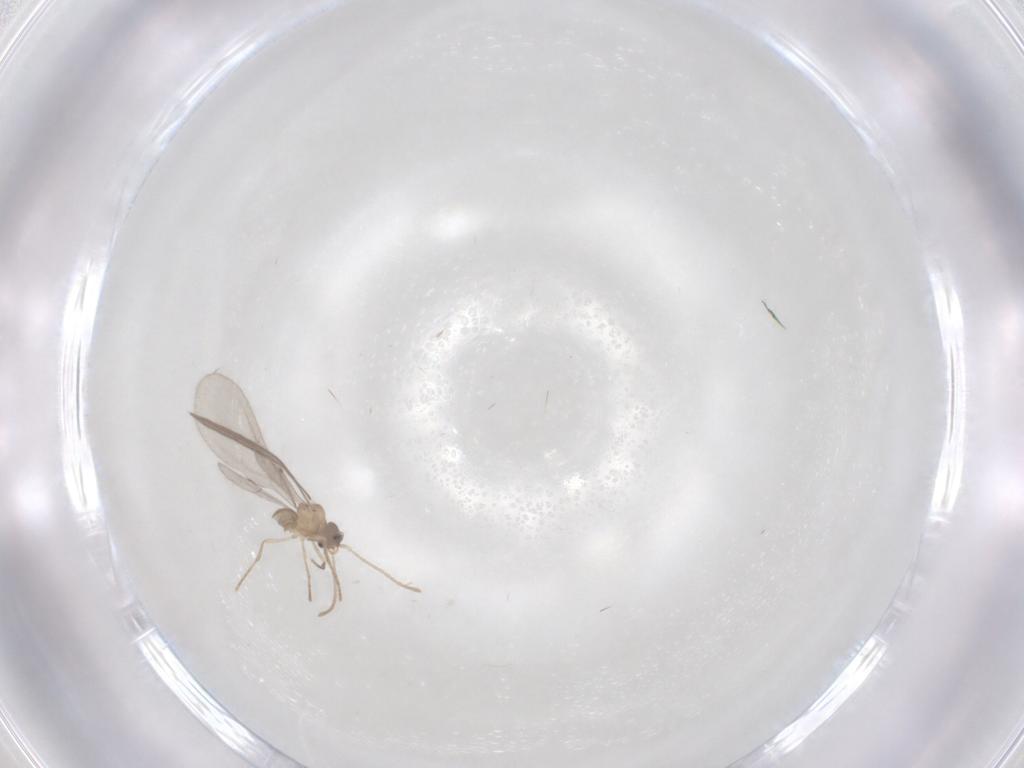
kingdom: Animalia
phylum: Arthropoda
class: Insecta
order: Hymenoptera
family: Formicidae
